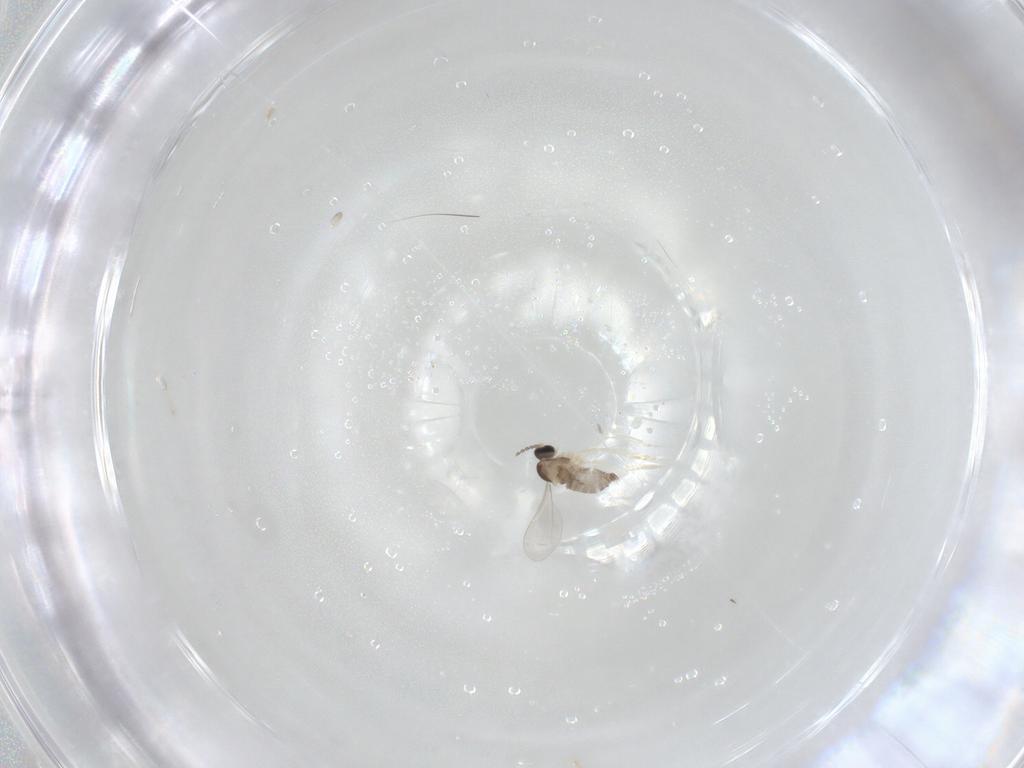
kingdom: Animalia
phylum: Arthropoda
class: Insecta
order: Diptera
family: Cecidomyiidae
